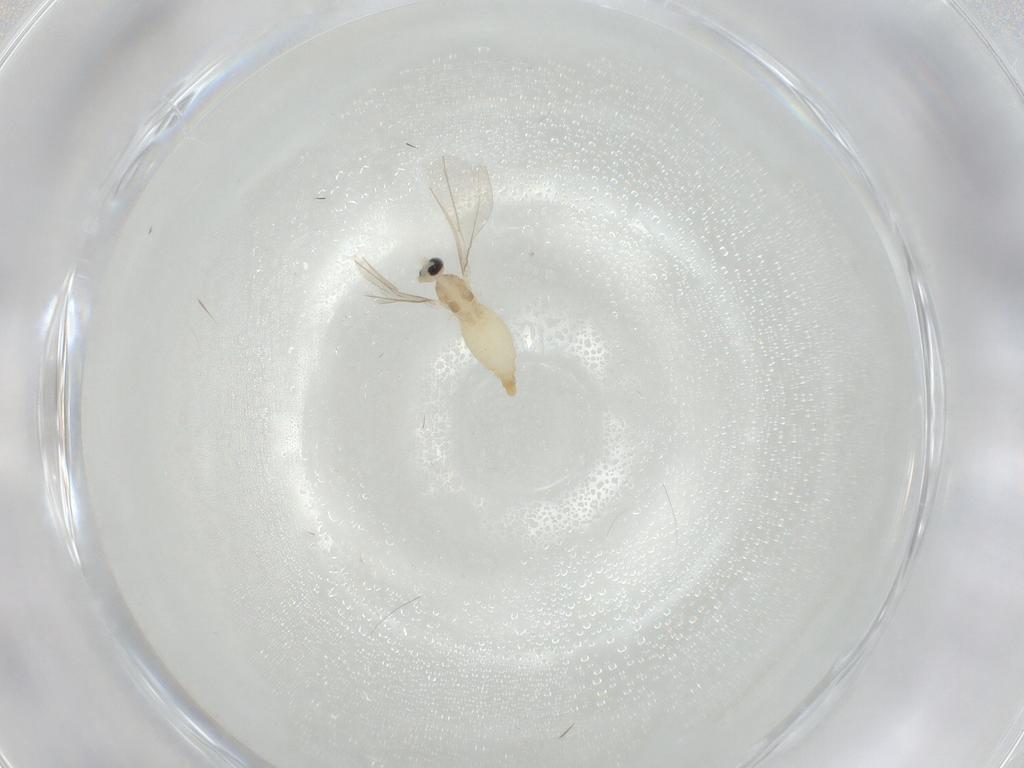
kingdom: Animalia
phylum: Arthropoda
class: Insecta
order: Diptera
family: Cecidomyiidae
